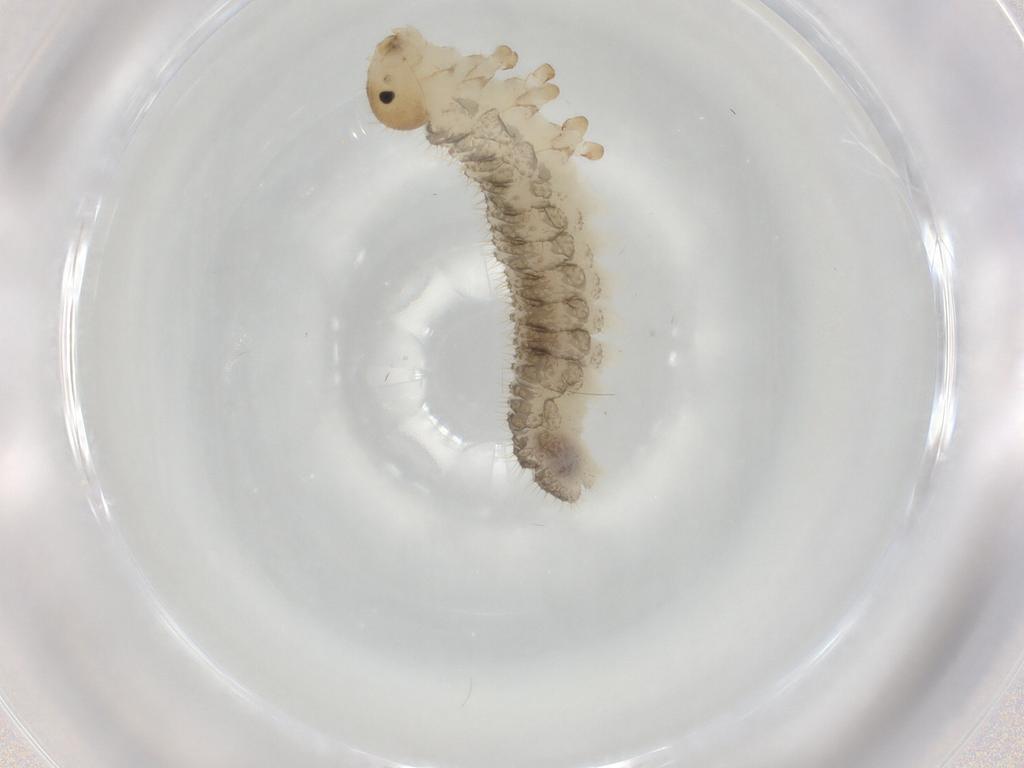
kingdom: Animalia
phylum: Arthropoda
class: Insecta
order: Hymenoptera
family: Tenthredinidae
